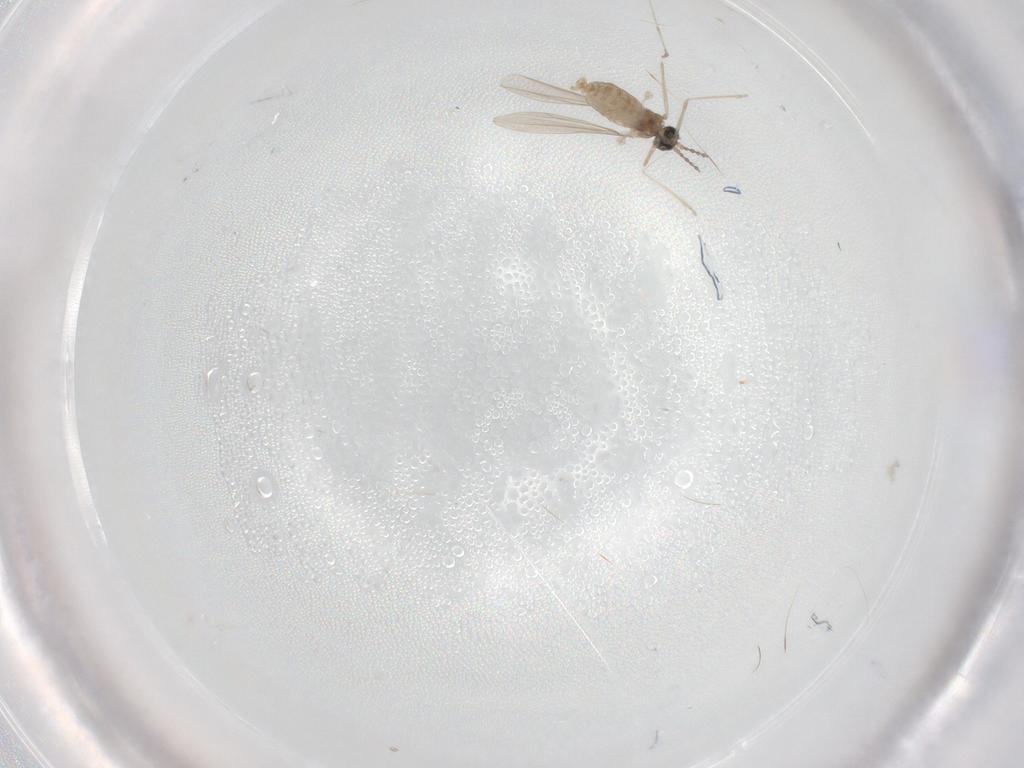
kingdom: Animalia
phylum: Arthropoda
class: Insecta
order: Diptera
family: Cecidomyiidae
